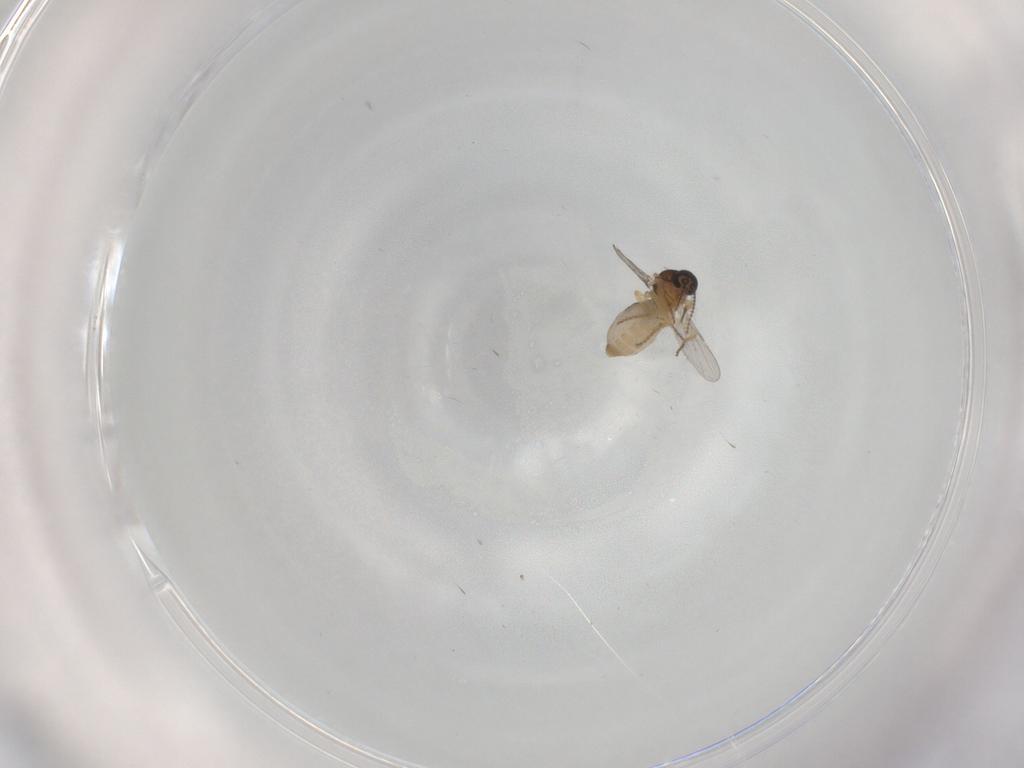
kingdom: Animalia
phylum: Arthropoda
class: Insecta
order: Diptera
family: Ceratopogonidae
